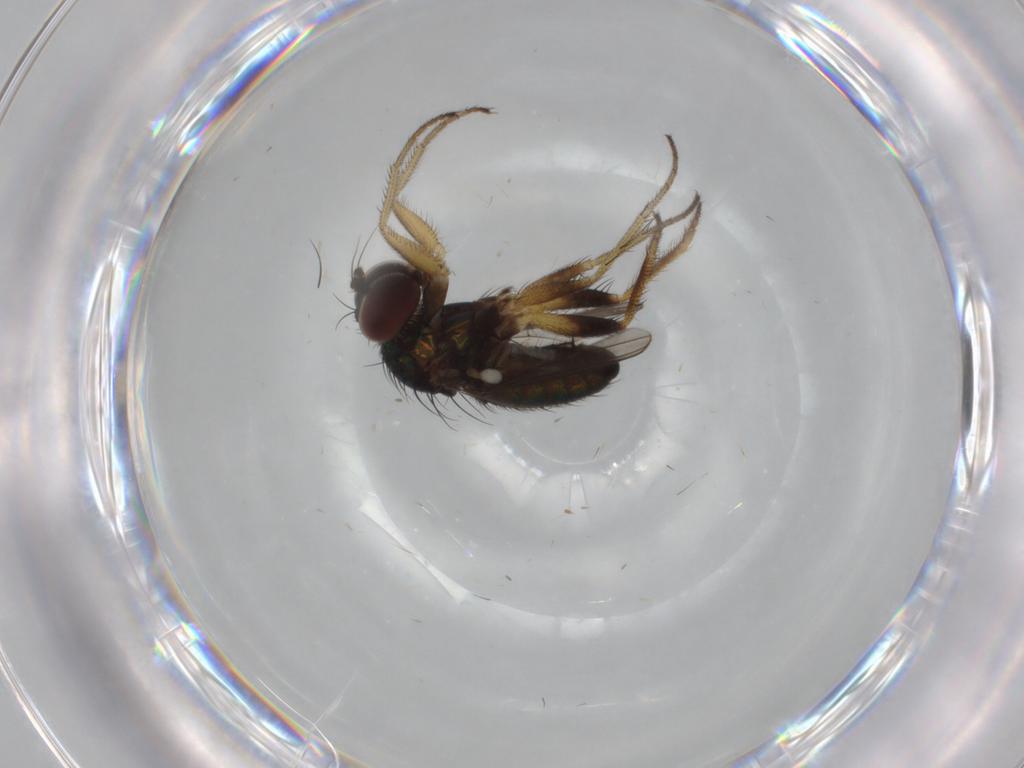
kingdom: Animalia
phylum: Arthropoda
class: Insecta
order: Diptera
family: Dolichopodidae
